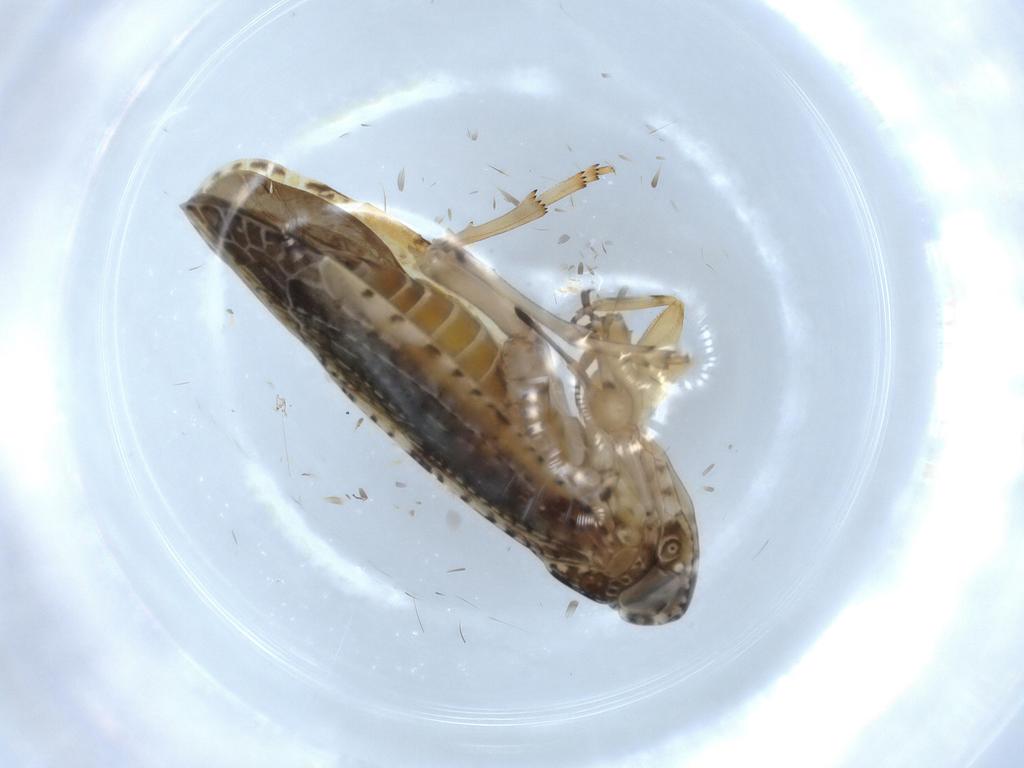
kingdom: Animalia
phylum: Arthropoda
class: Insecta
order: Hemiptera
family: Achilidae
